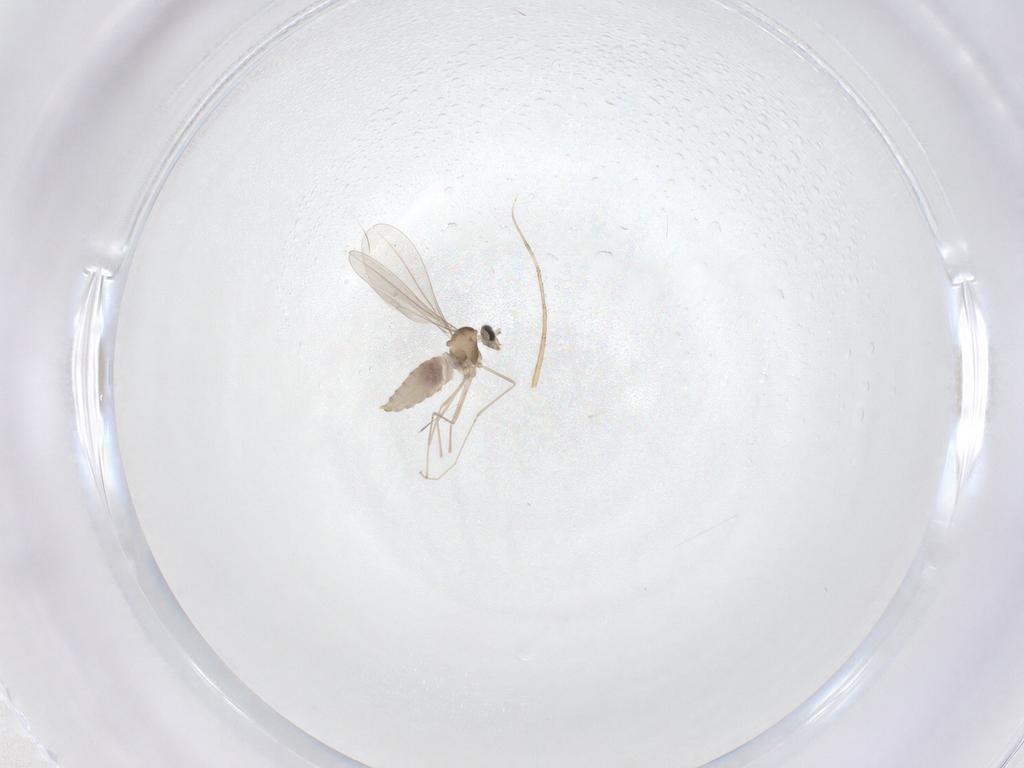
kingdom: Animalia
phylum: Arthropoda
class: Insecta
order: Diptera
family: Cecidomyiidae
